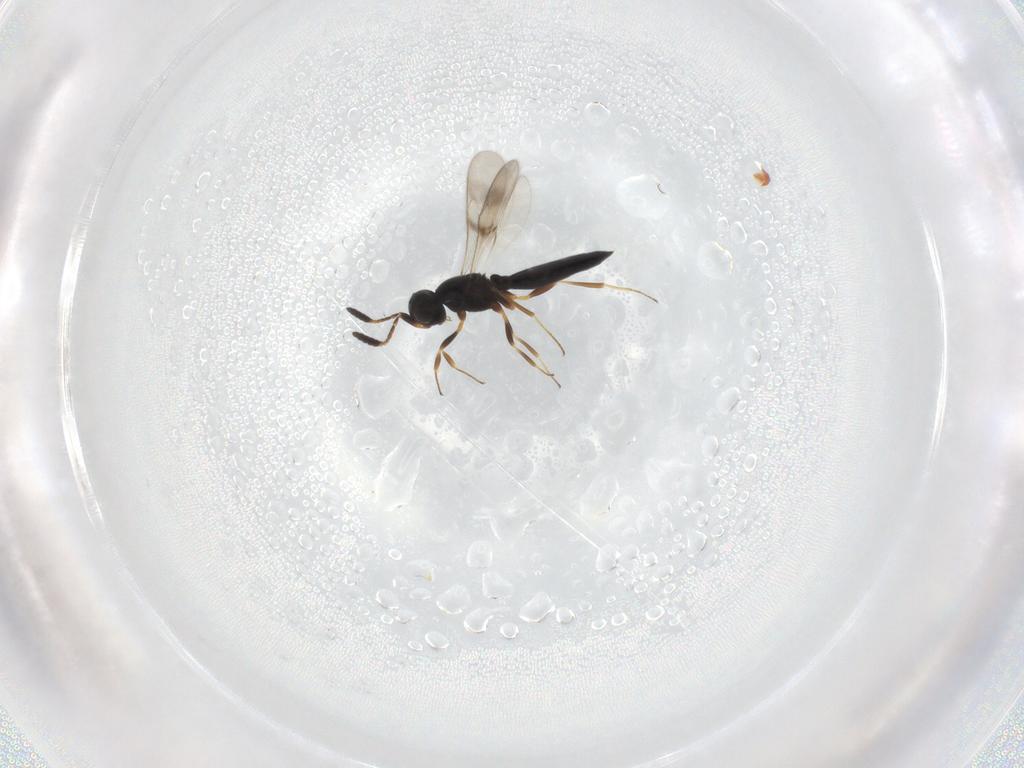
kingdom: Animalia
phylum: Arthropoda
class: Insecta
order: Hymenoptera
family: Scelionidae
